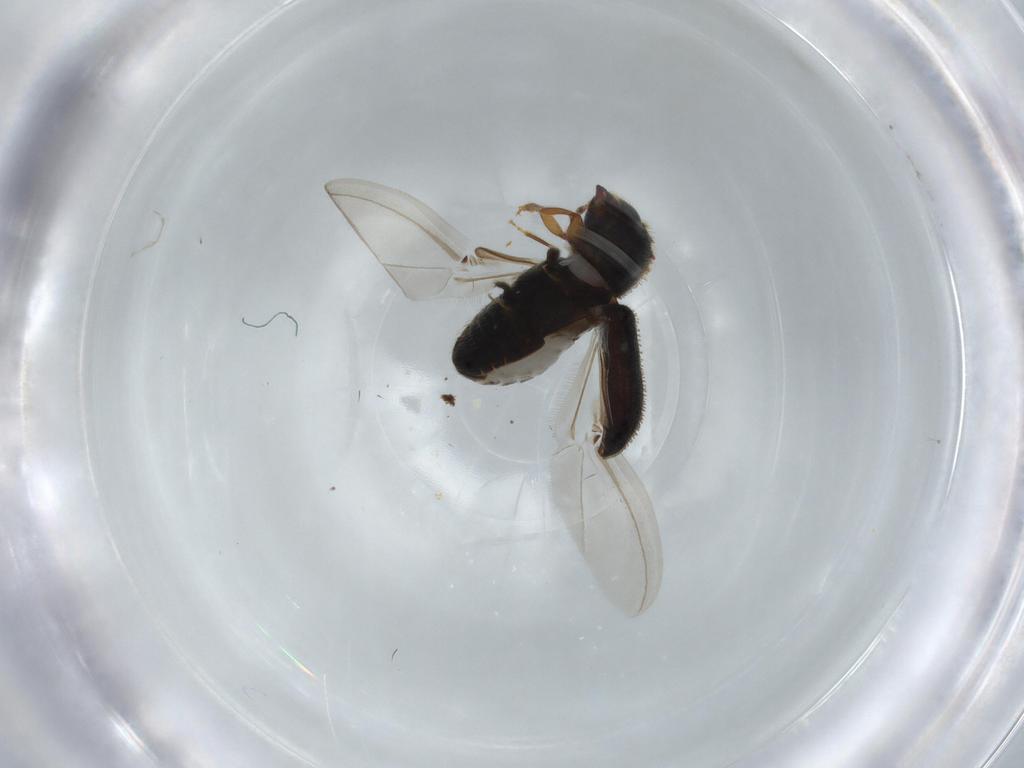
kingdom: Animalia
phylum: Arthropoda
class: Insecta
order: Coleoptera
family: Curculionidae
